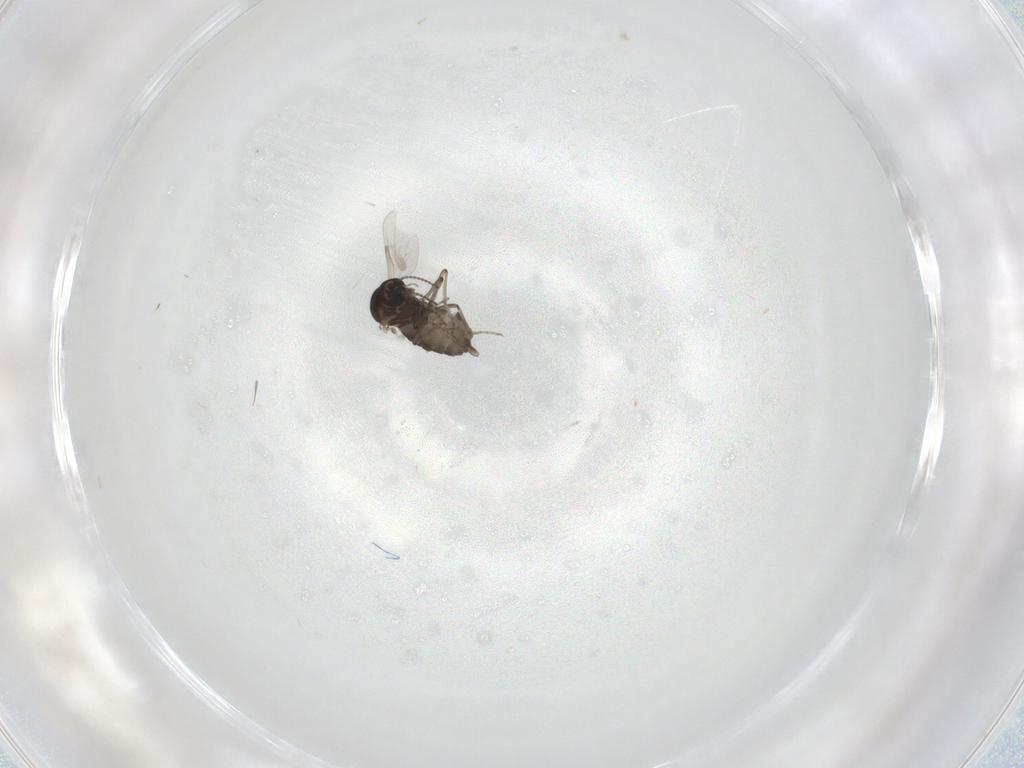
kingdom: Animalia
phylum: Arthropoda
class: Insecta
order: Diptera
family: Ceratopogonidae
